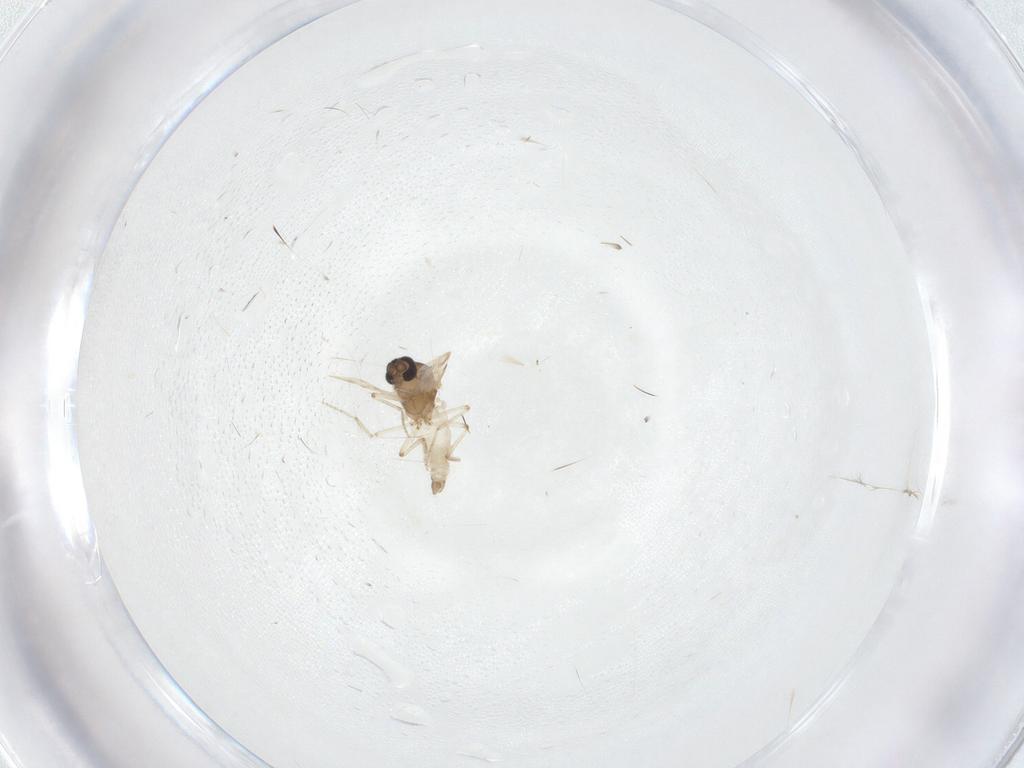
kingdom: Animalia
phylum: Arthropoda
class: Insecta
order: Diptera
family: Ceratopogonidae
